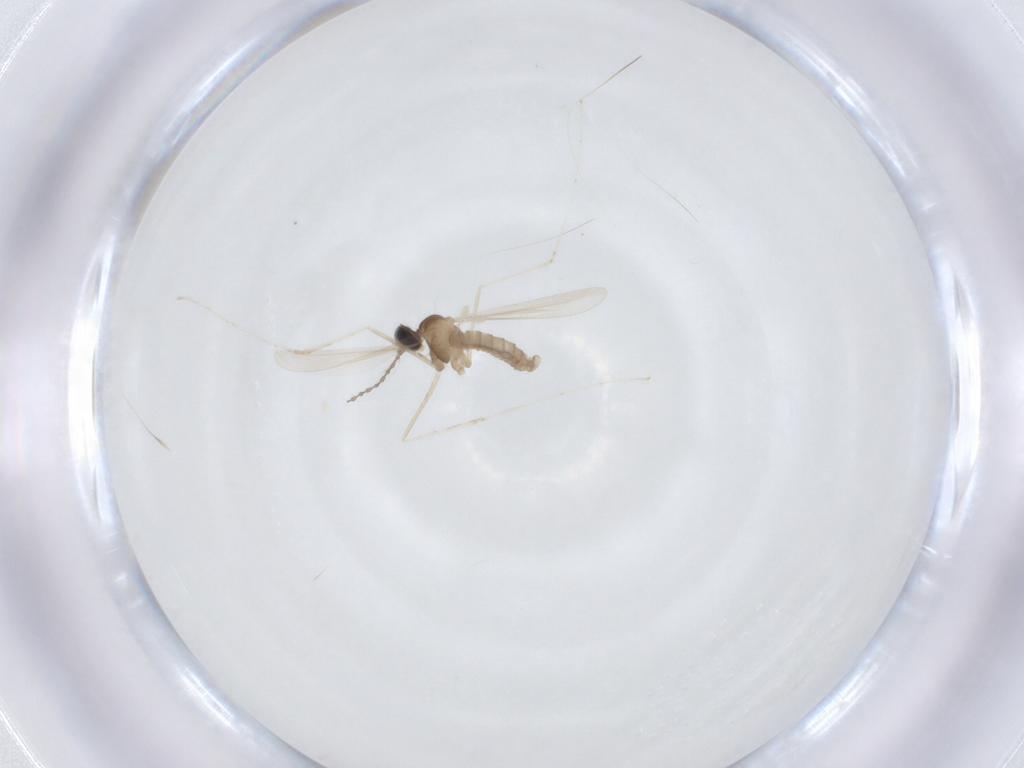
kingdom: Animalia
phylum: Arthropoda
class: Insecta
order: Diptera
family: Cecidomyiidae
